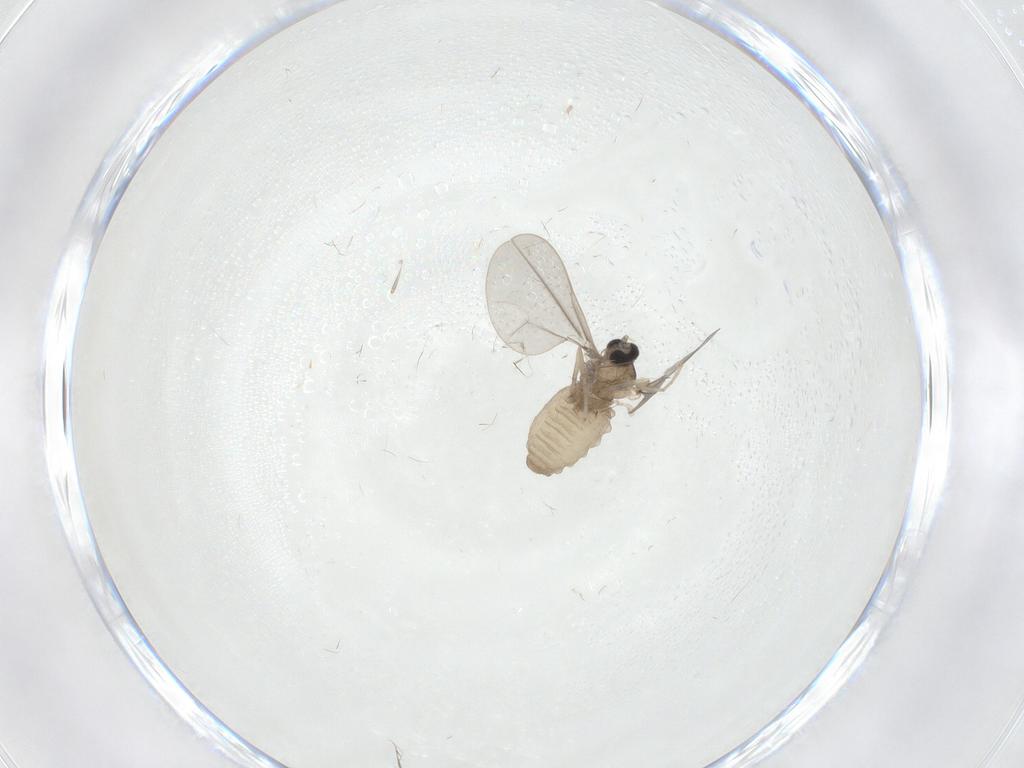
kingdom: Animalia
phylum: Arthropoda
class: Insecta
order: Diptera
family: Cecidomyiidae
